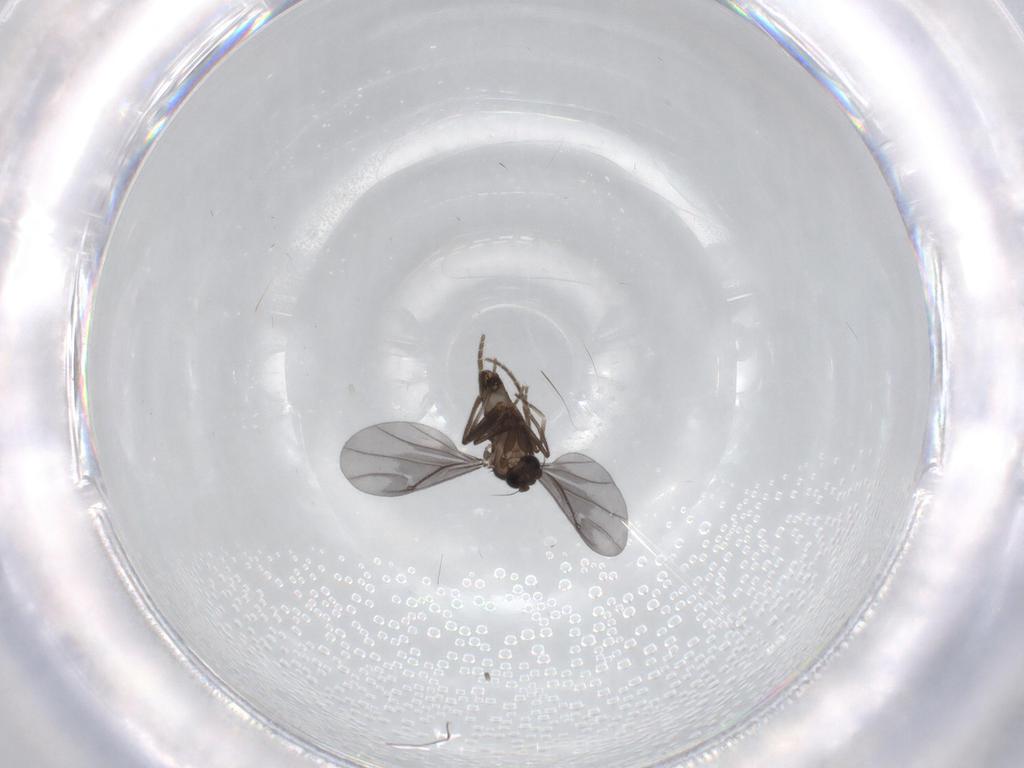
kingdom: Animalia
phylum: Arthropoda
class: Insecta
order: Diptera
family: Phoridae
